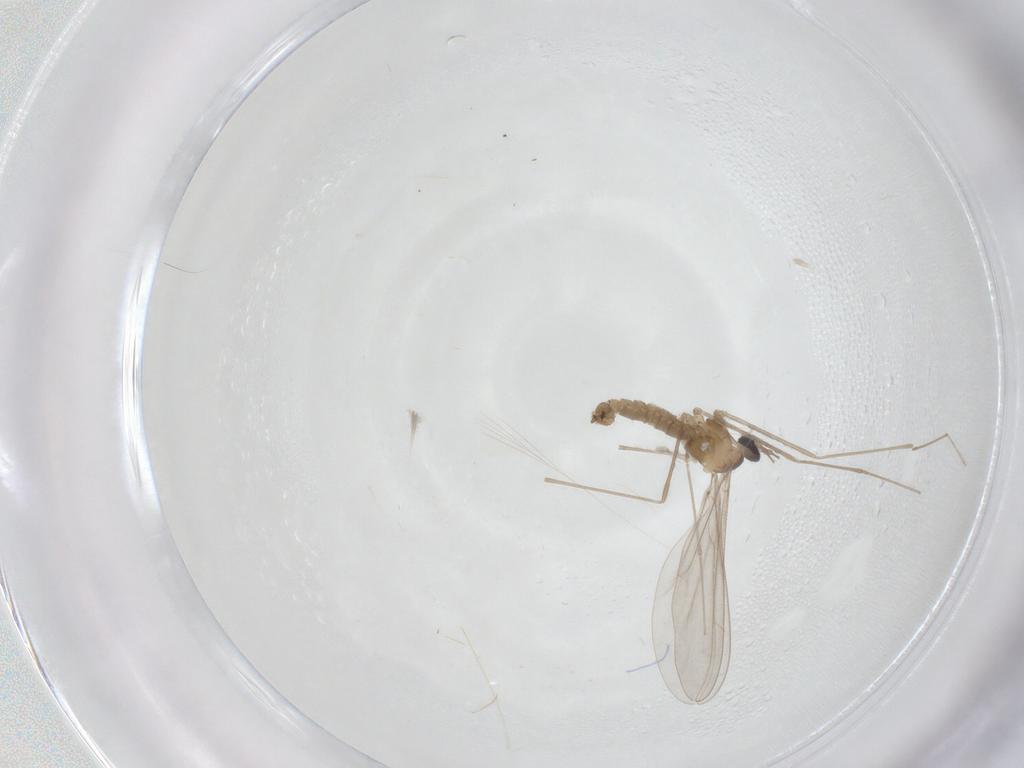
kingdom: Animalia
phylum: Arthropoda
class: Insecta
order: Diptera
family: Cecidomyiidae
